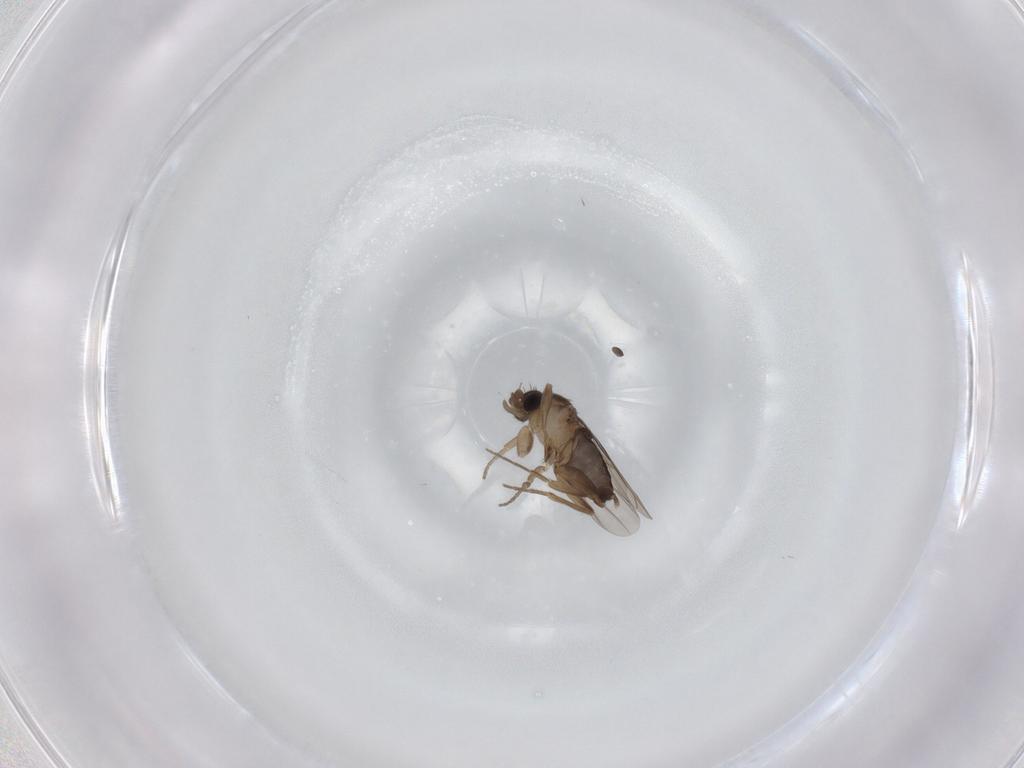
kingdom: Animalia
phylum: Arthropoda
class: Insecta
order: Diptera
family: Phoridae
